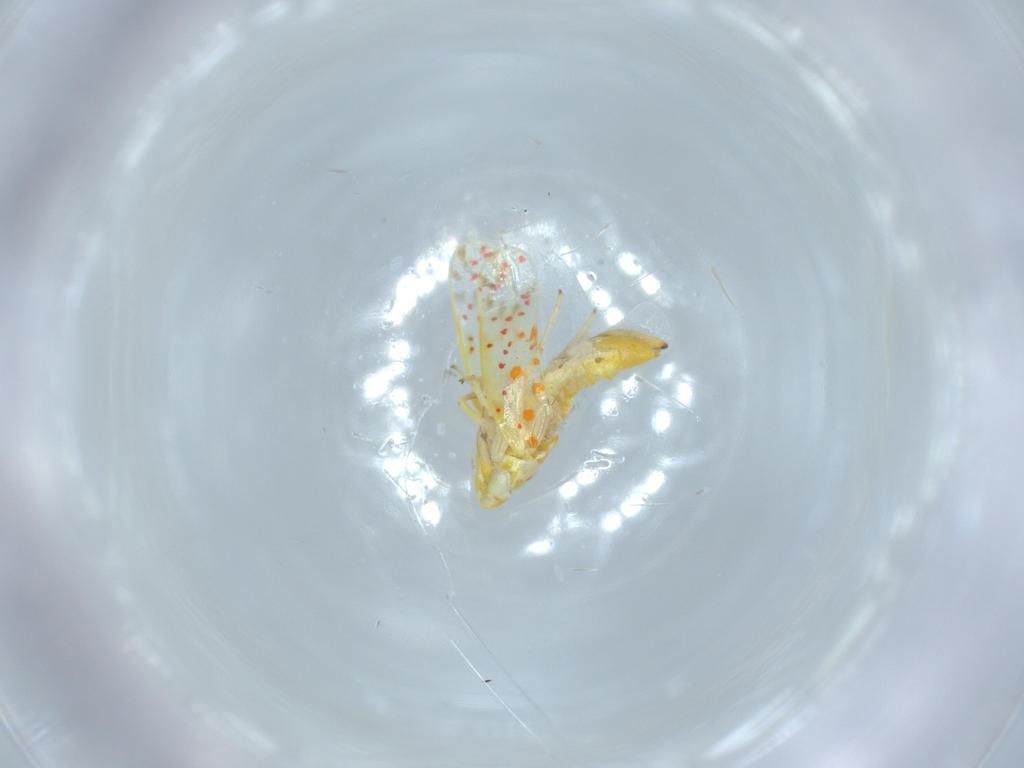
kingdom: Animalia
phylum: Arthropoda
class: Insecta
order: Hemiptera
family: Cicadellidae
